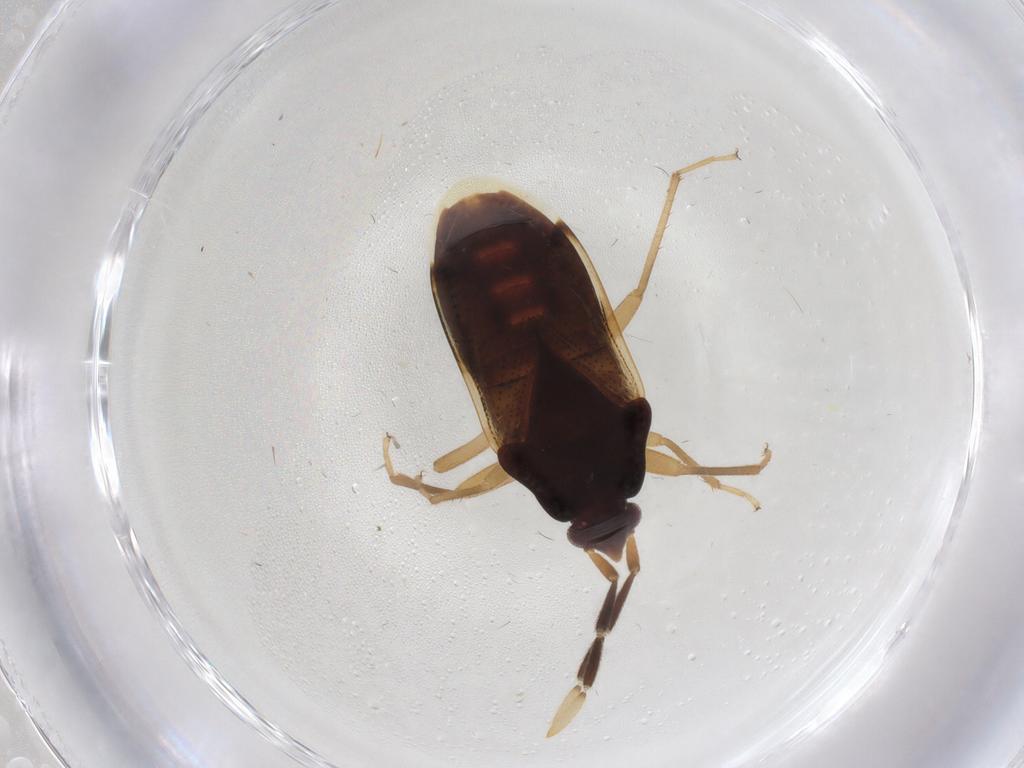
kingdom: Animalia
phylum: Arthropoda
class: Insecta
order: Hemiptera
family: Rhyparochromidae
